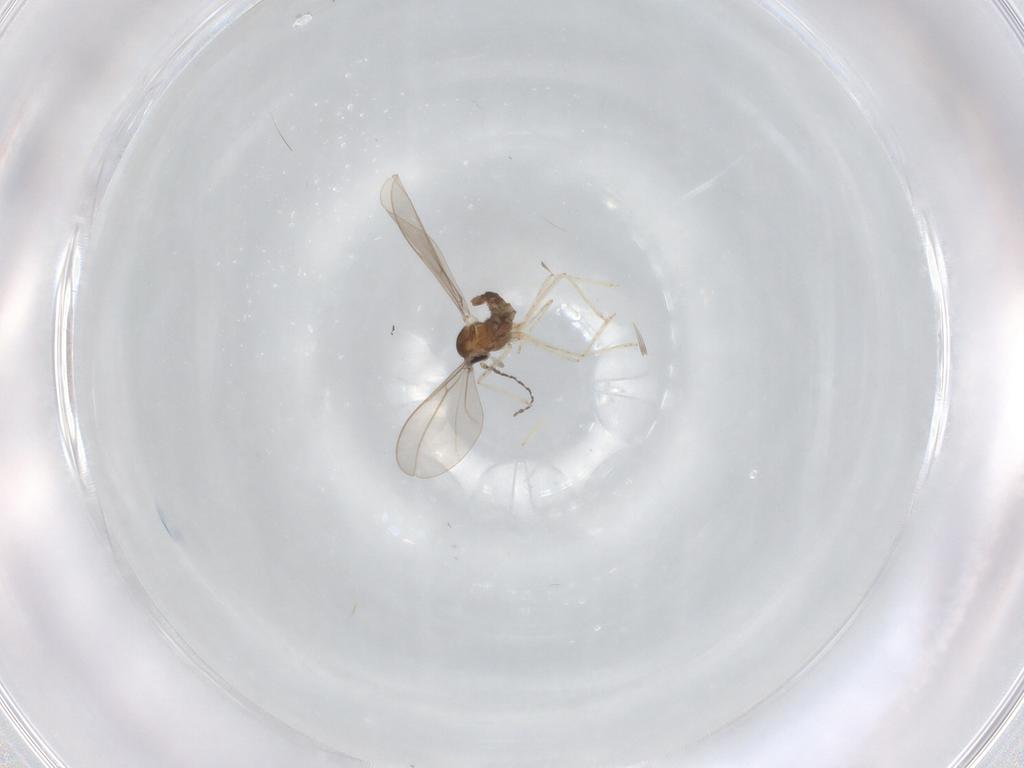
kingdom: Animalia
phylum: Arthropoda
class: Insecta
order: Diptera
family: Cecidomyiidae
